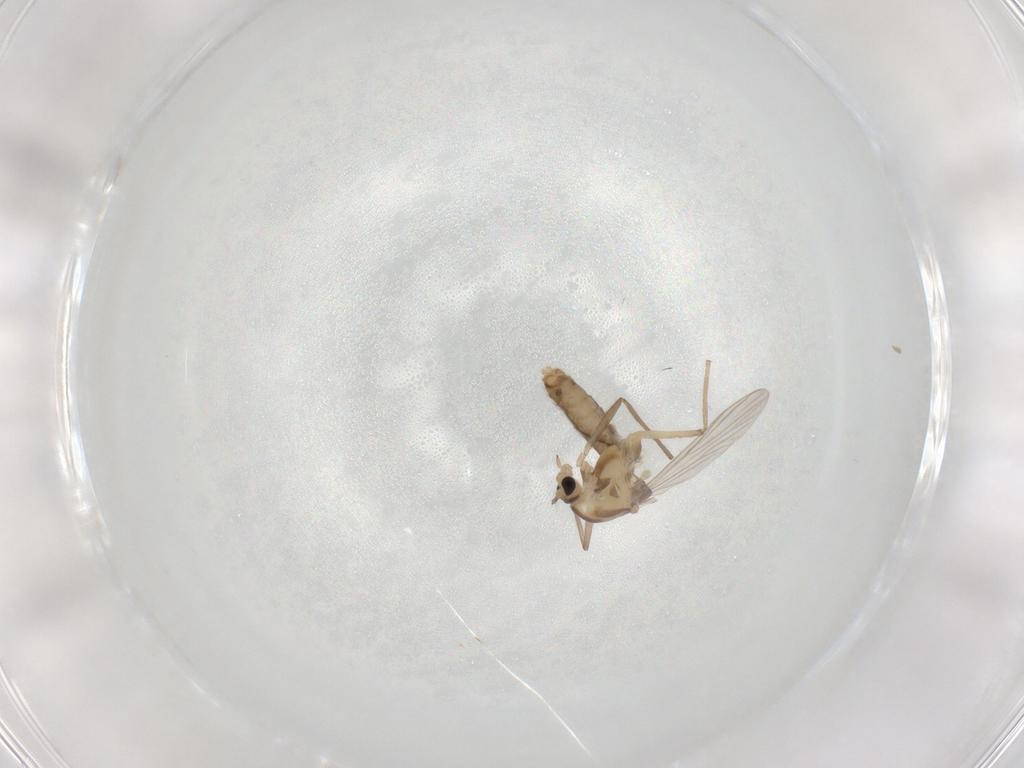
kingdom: Animalia
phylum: Arthropoda
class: Insecta
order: Diptera
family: Chironomidae
